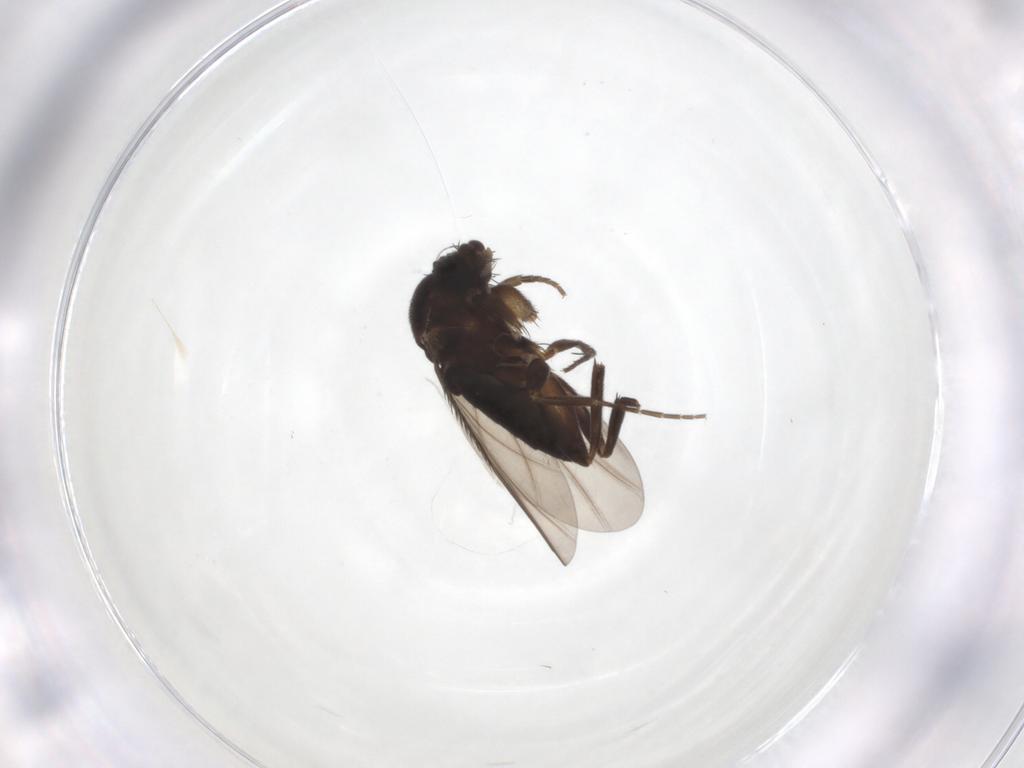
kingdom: Animalia
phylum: Arthropoda
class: Insecta
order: Diptera
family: Phoridae
